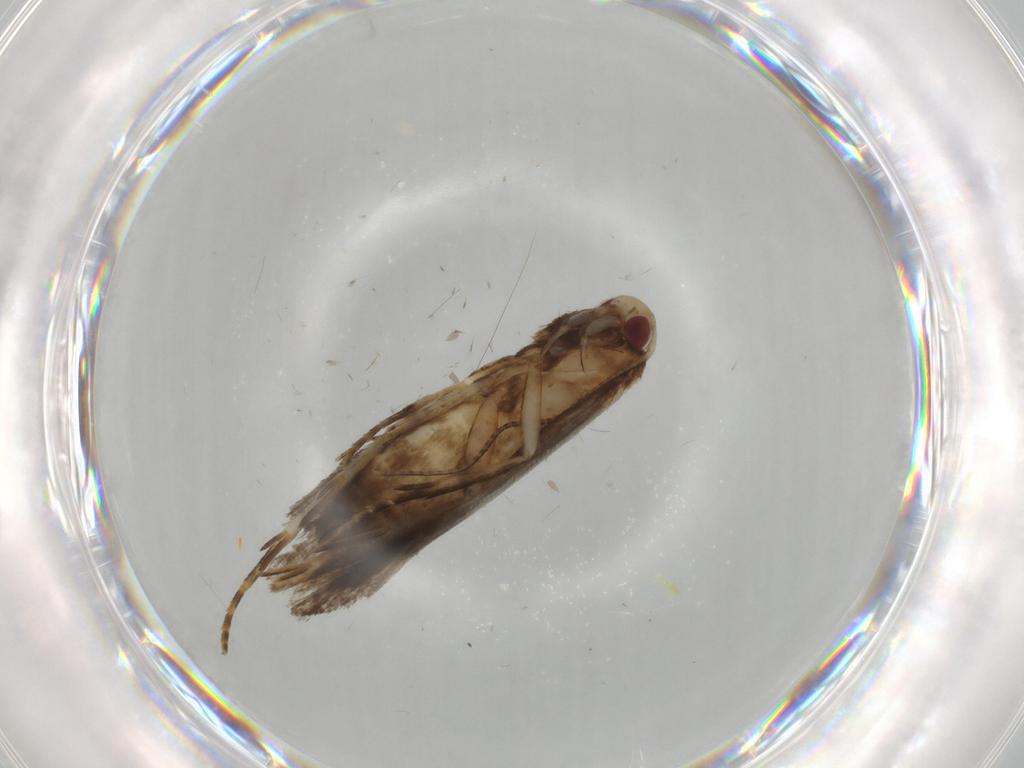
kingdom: Animalia
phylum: Arthropoda
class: Insecta
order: Lepidoptera
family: Gelechiidae
